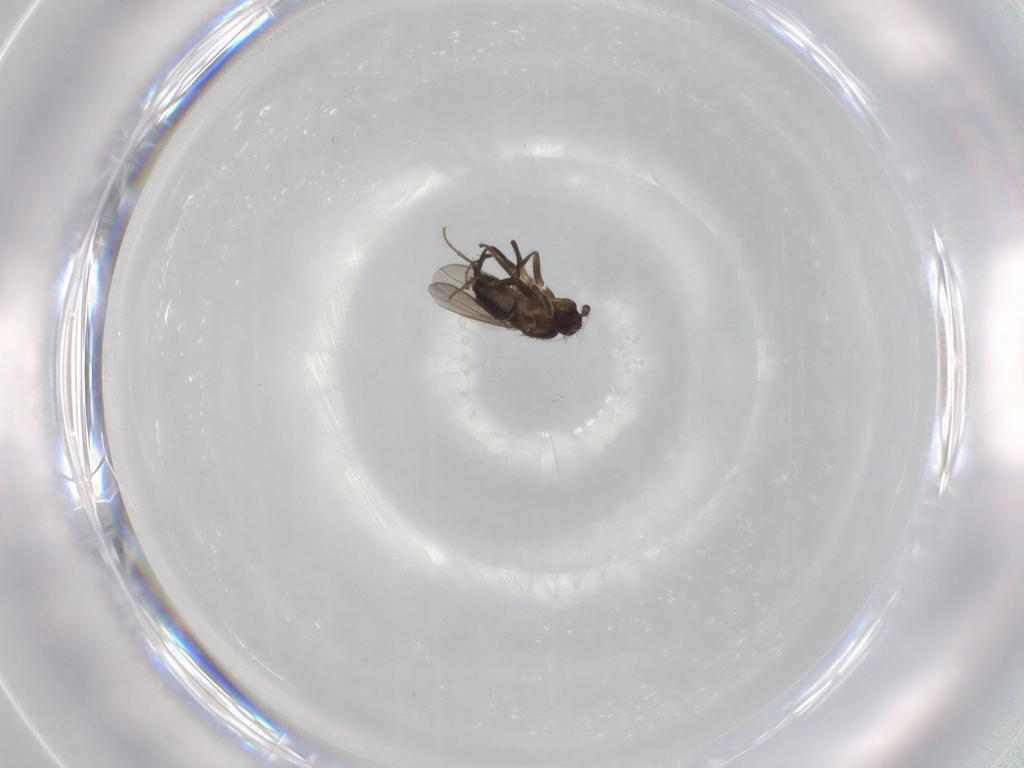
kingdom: Animalia
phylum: Arthropoda
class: Insecta
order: Diptera
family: Sphaeroceridae
